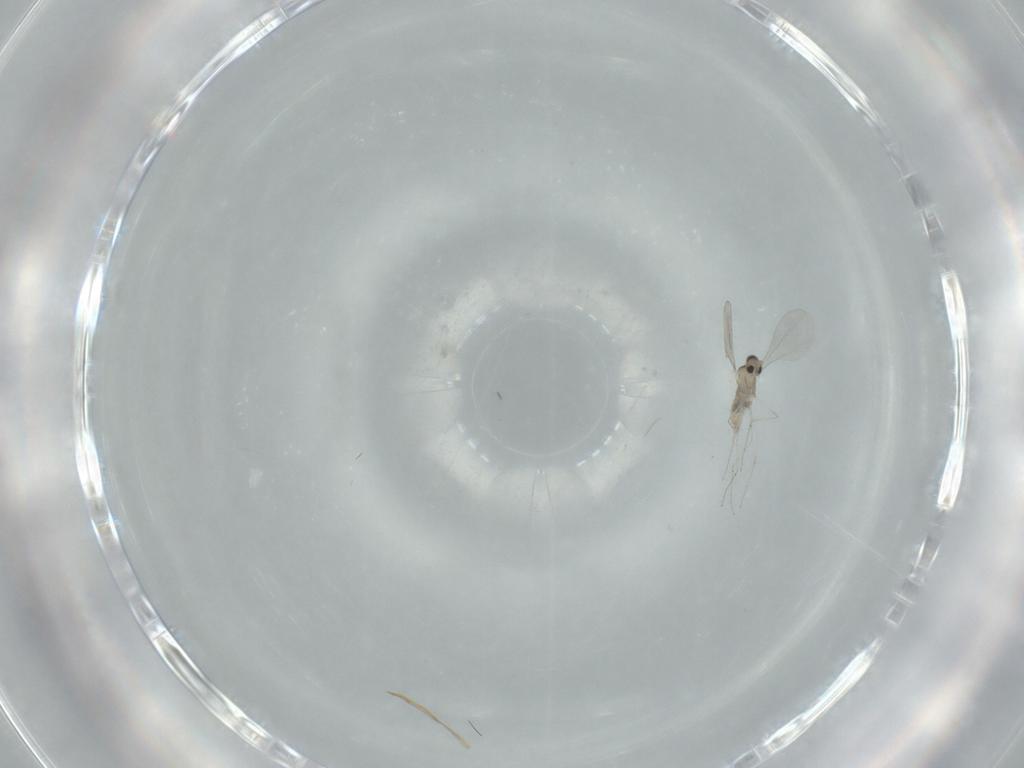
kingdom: Animalia
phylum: Arthropoda
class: Insecta
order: Diptera
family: Cecidomyiidae
